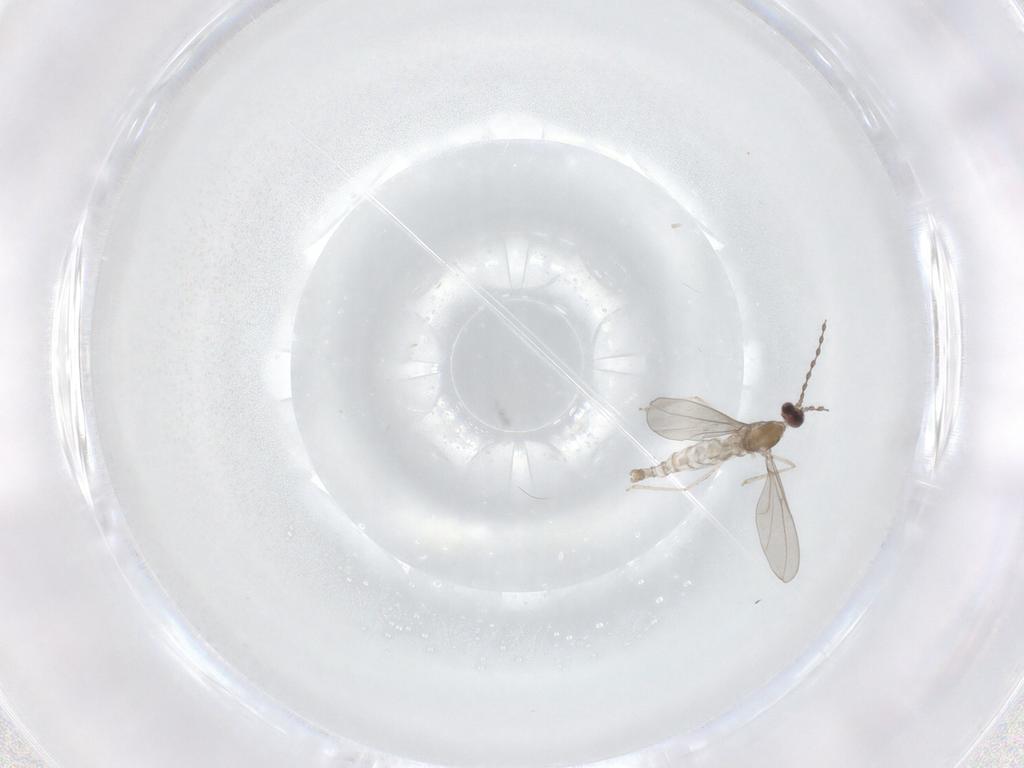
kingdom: Animalia
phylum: Arthropoda
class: Insecta
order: Diptera
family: Cecidomyiidae
